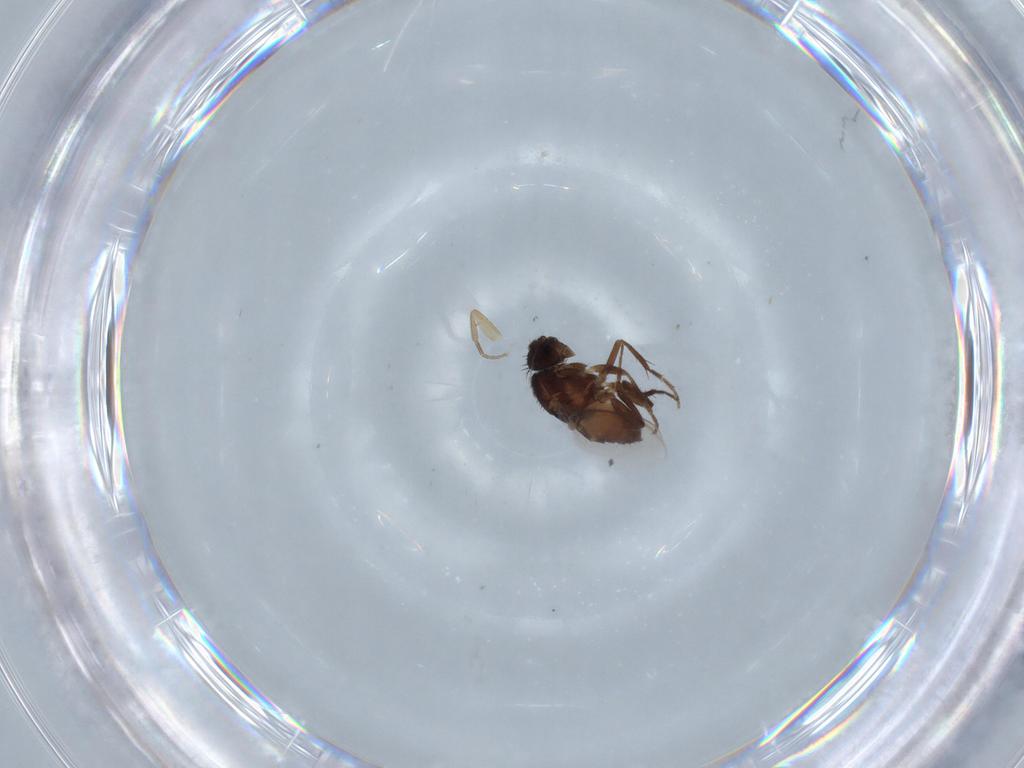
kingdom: Animalia
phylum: Arthropoda
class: Insecta
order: Diptera
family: Sphaeroceridae
